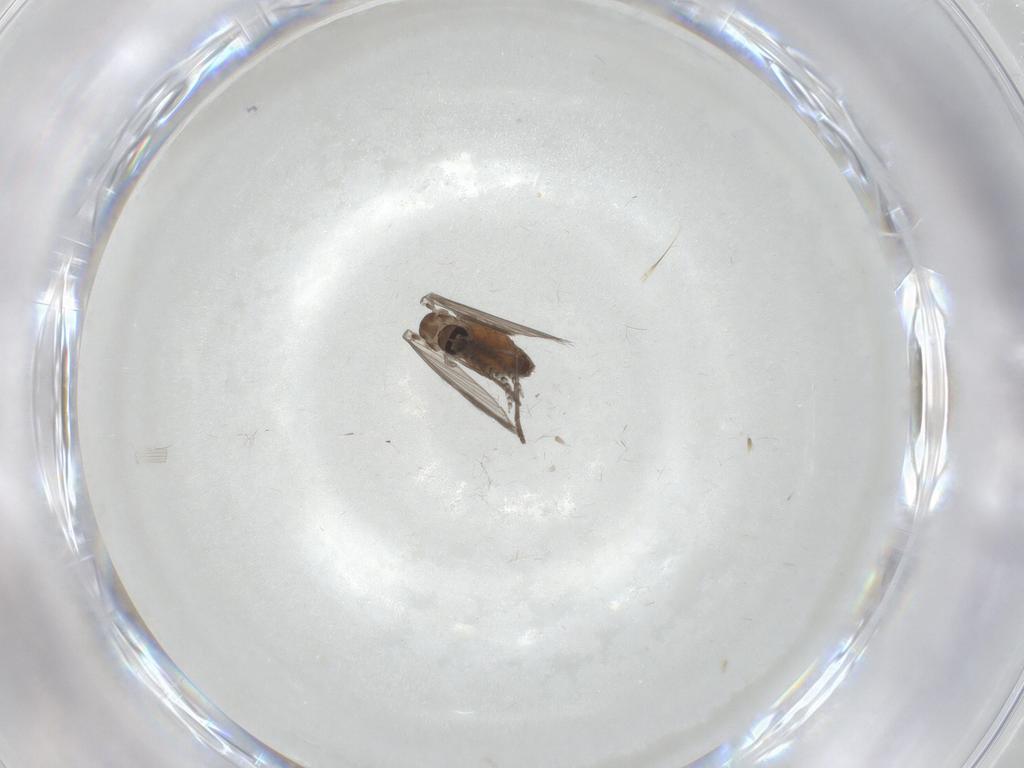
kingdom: Animalia
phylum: Arthropoda
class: Insecta
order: Diptera
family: Psychodidae
